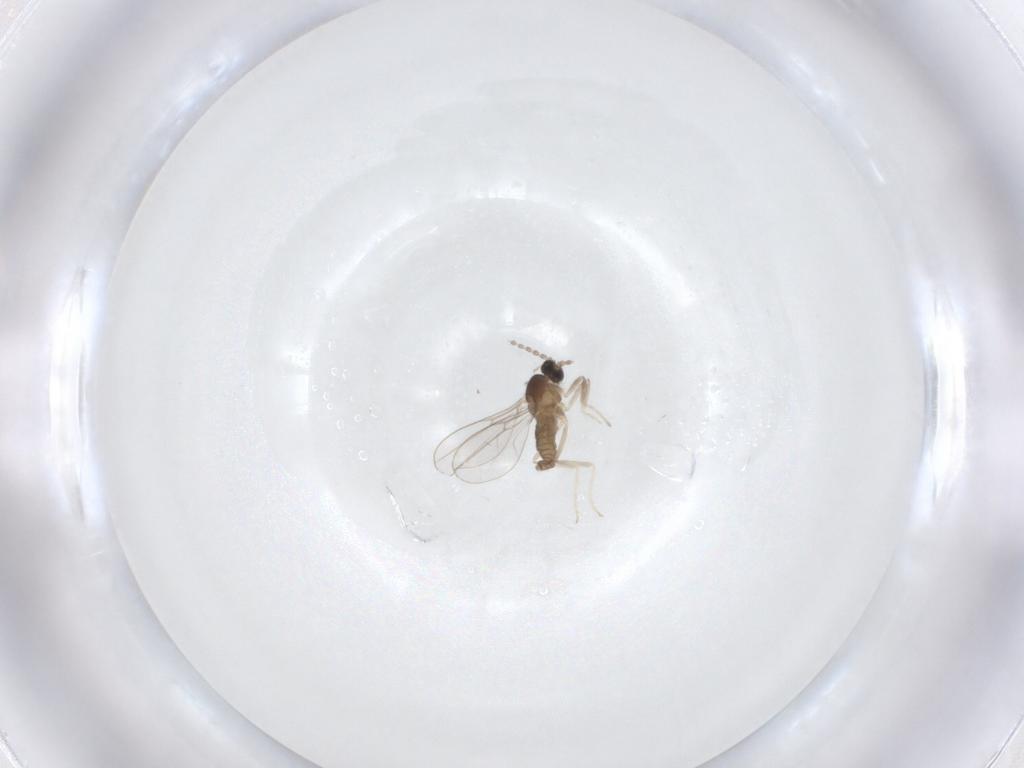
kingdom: Animalia
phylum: Arthropoda
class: Insecta
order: Diptera
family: Cecidomyiidae
